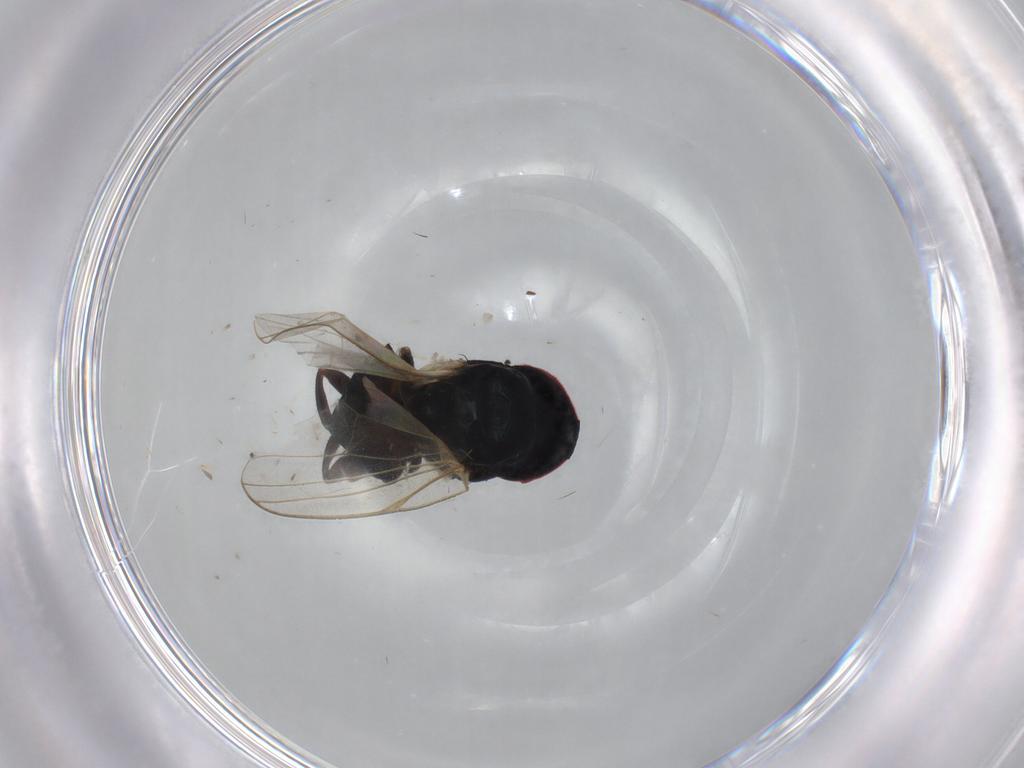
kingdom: Animalia
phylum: Arthropoda
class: Insecta
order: Diptera
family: Lonchaeidae
